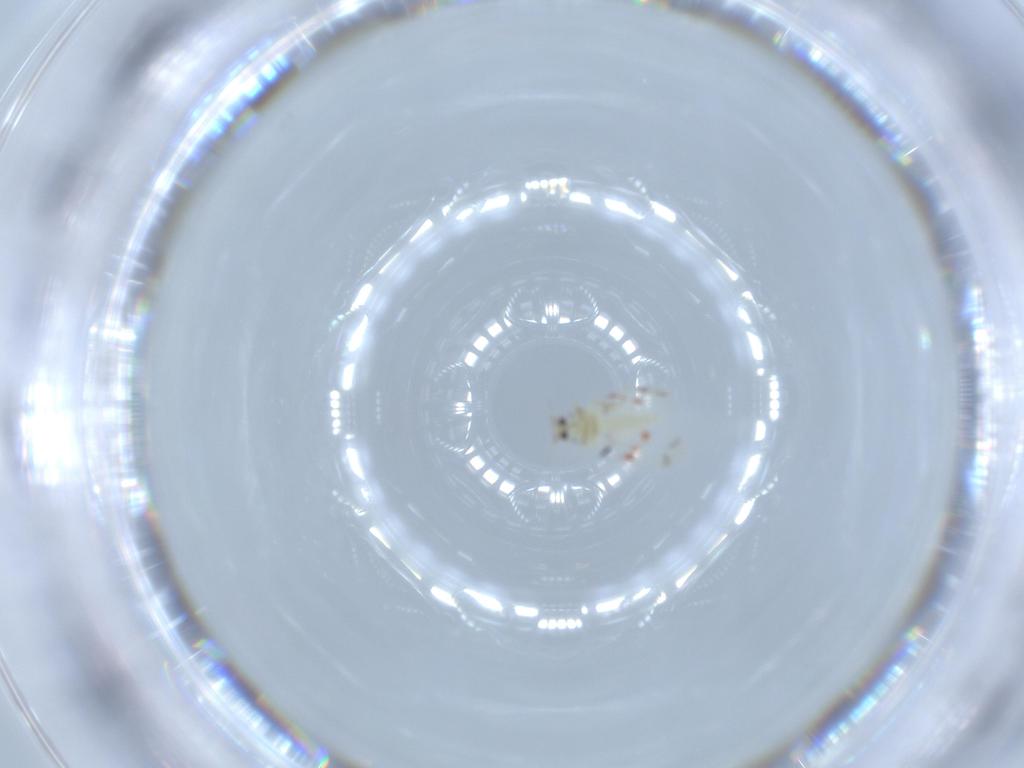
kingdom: Animalia
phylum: Arthropoda
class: Insecta
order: Hemiptera
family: Aleyrodidae
